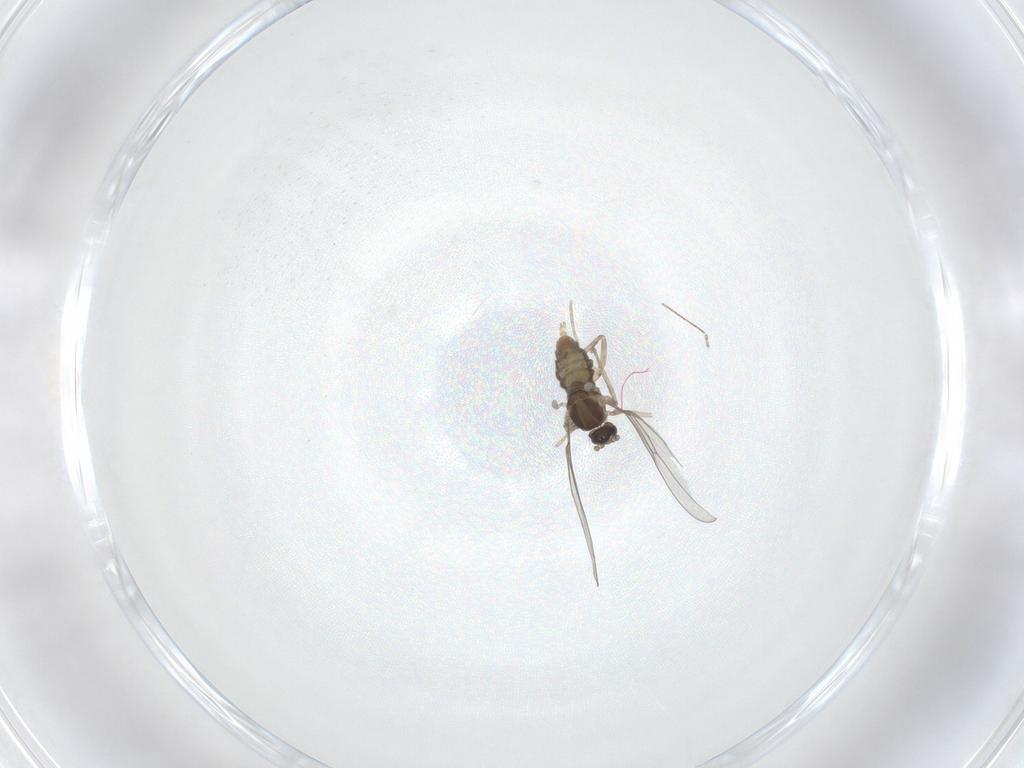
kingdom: Animalia
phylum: Arthropoda
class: Insecta
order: Diptera
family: Cecidomyiidae
